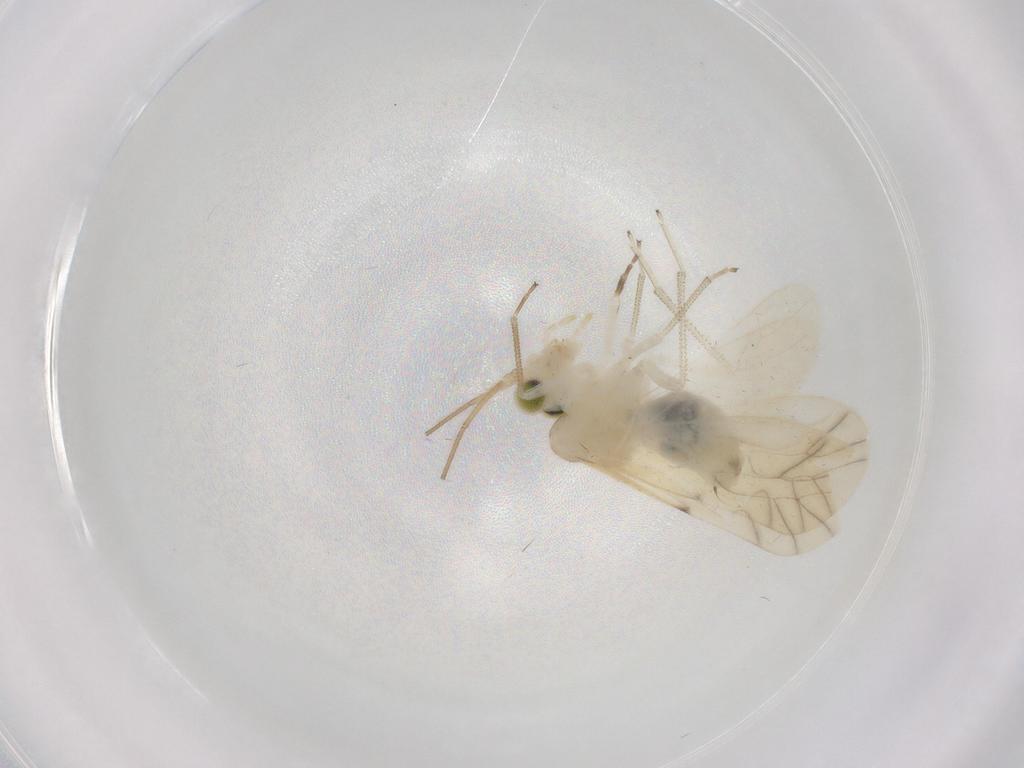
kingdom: Animalia
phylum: Arthropoda
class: Insecta
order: Psocodea
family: Caeciliusidae
